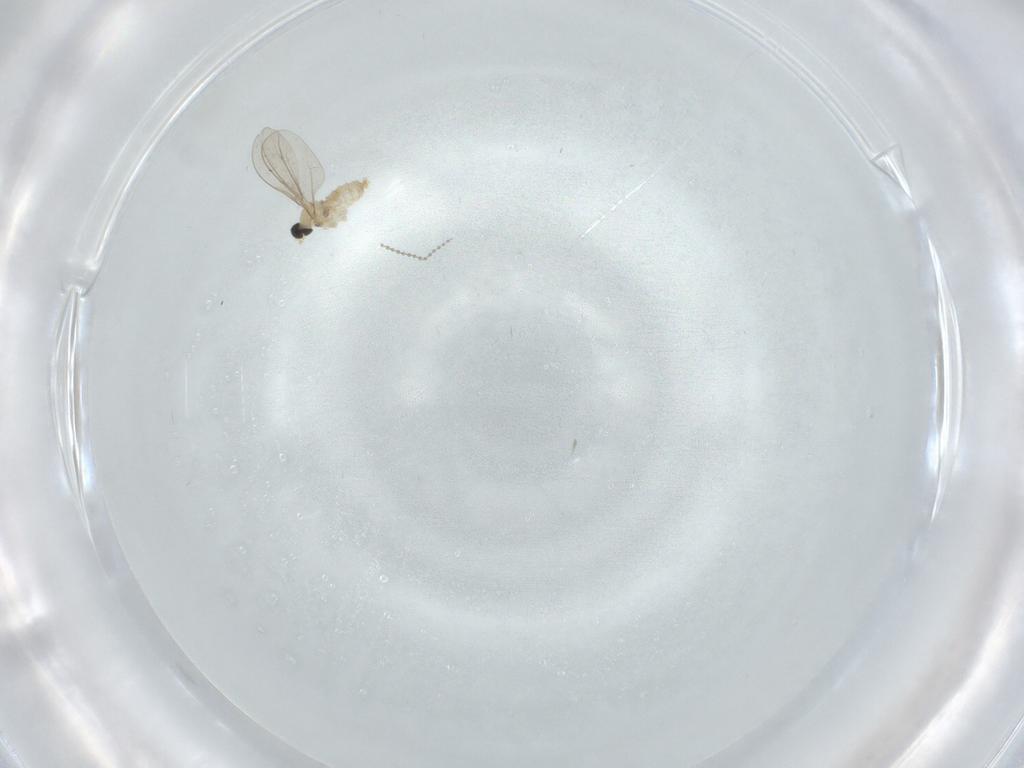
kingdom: Animalia
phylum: Arthropoda
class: Insecta
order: Diptera
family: Cecidomyiidae
